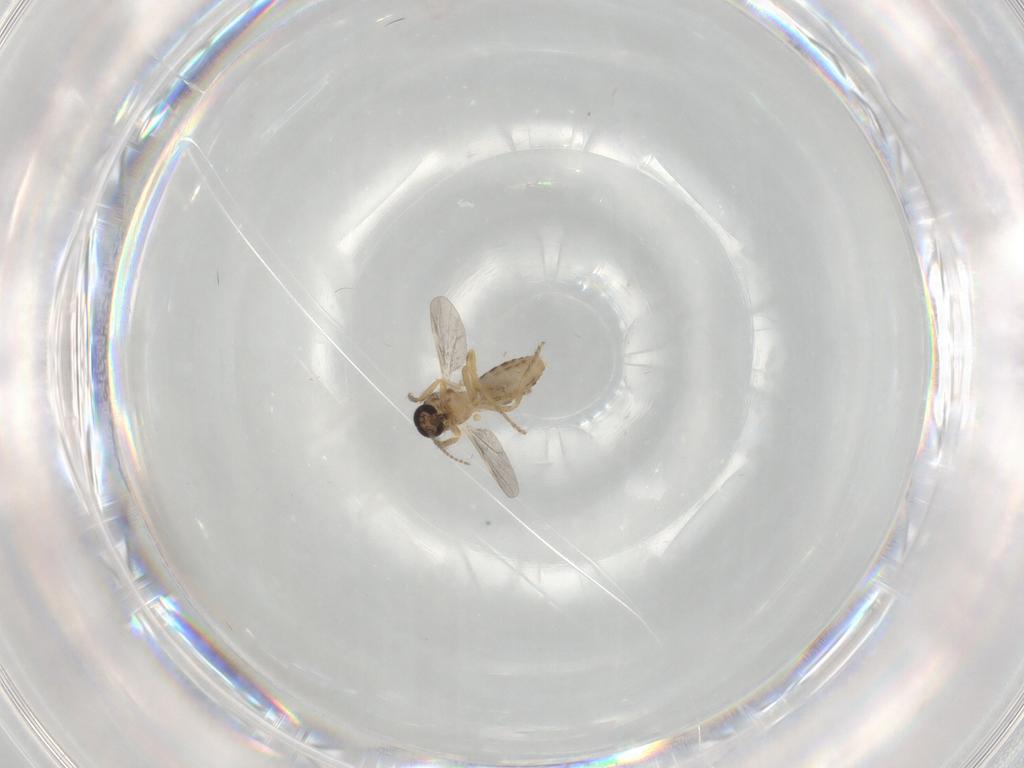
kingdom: Animalia
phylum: Arthropoda
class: Insecta
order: Diptera
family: Ceratopogonidae
